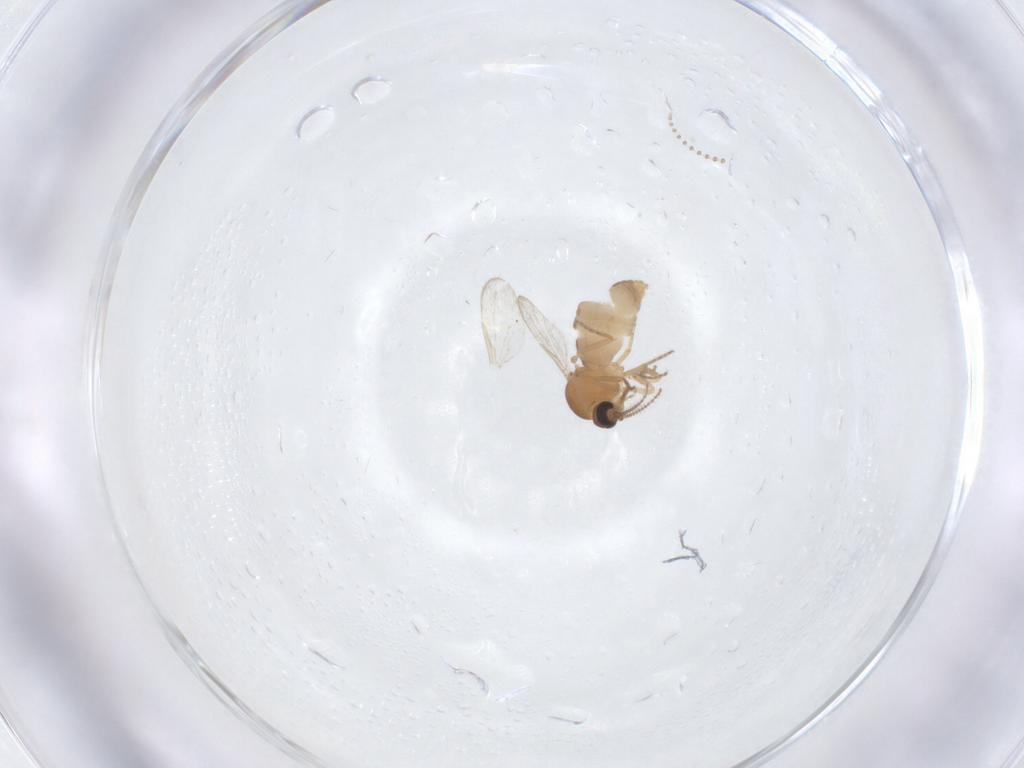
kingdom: Animalia
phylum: Arthropoda
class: Insecta
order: Diptera
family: Ceratopogonidae
